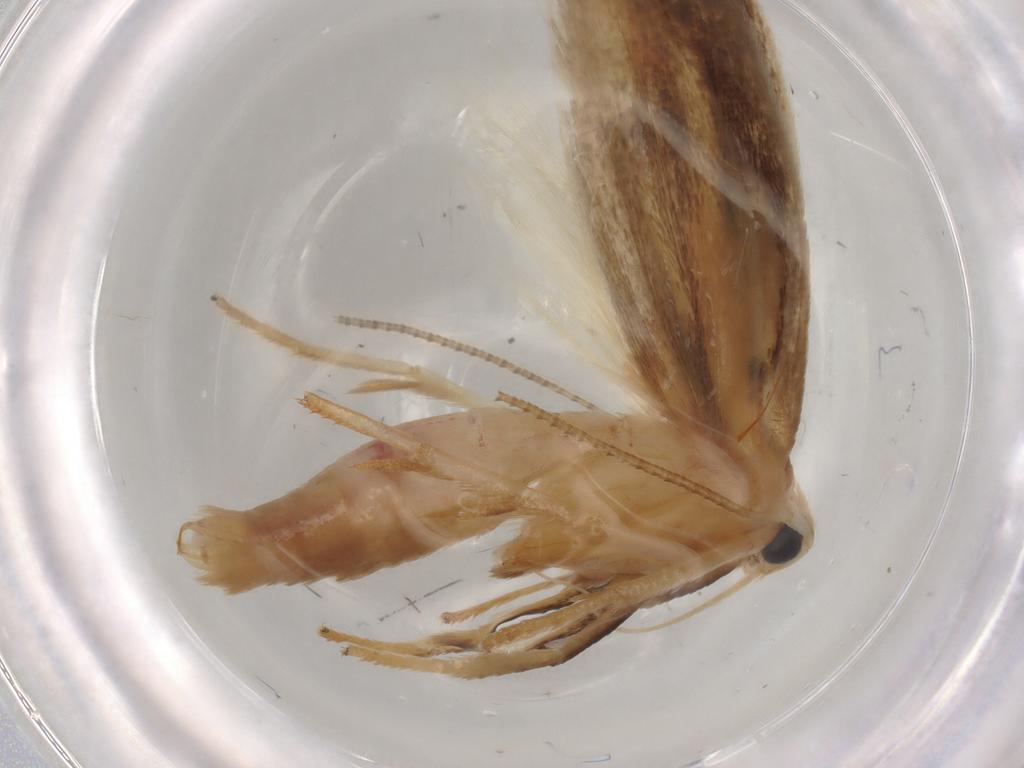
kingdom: Animalia
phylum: Arthropoda
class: Insecta
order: Lepidoptera
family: Geometridae
